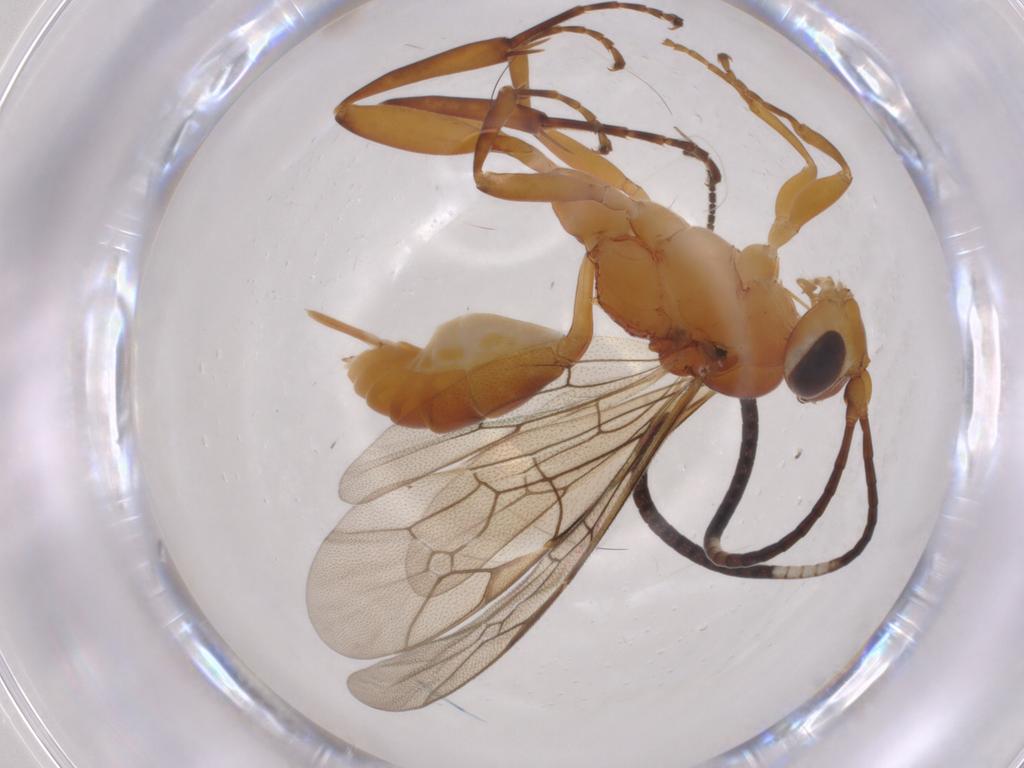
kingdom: Animalia
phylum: Arthropoda
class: Insecta
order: Hymenoptera
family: Ichneumonidae
